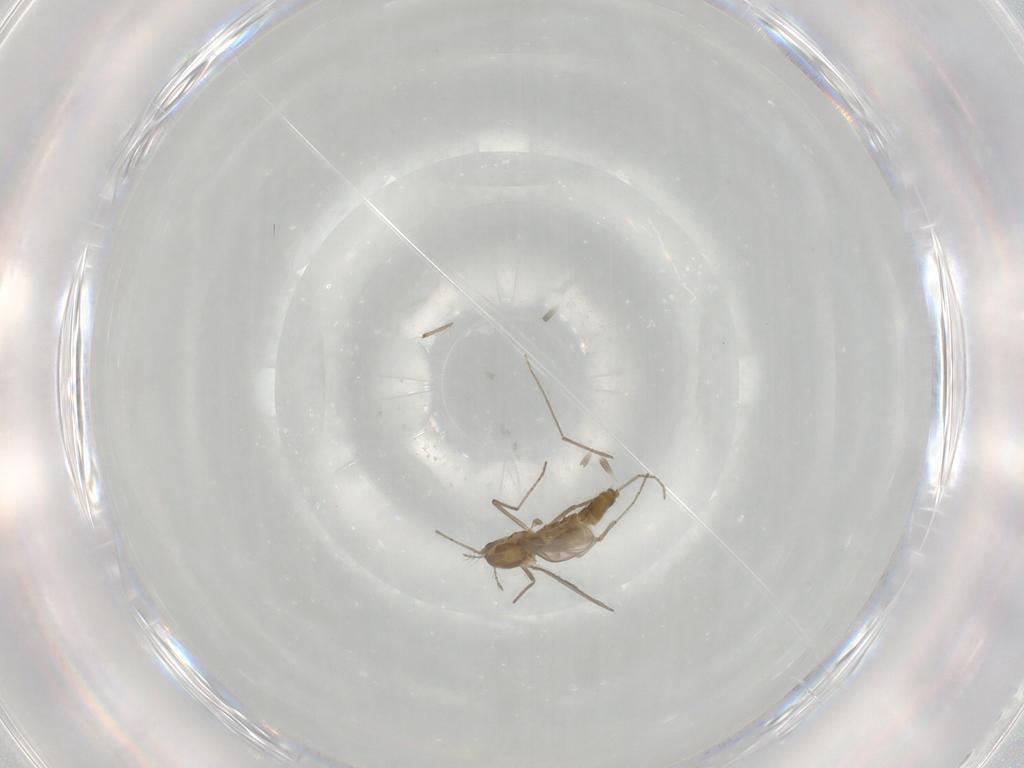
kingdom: Animalia
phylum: Arthropoda
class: Insecta
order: Diptera
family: Chironomidae
